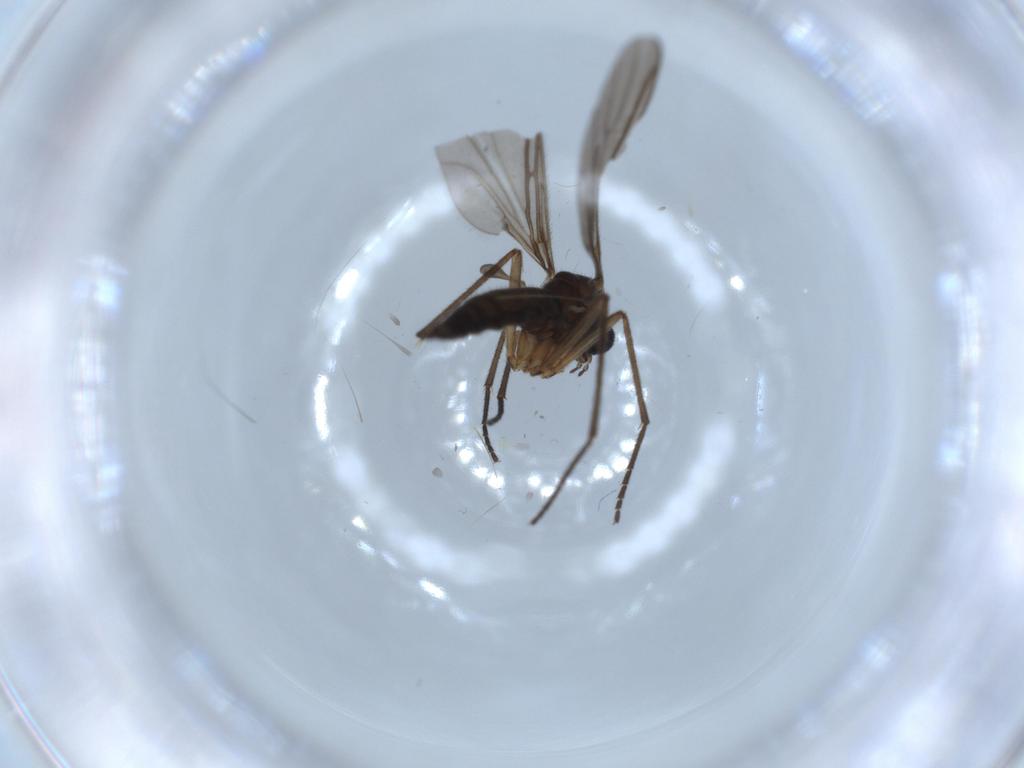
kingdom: Animalia
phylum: Arthropoda
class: Insecta
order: Diptera
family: Sciaridae
